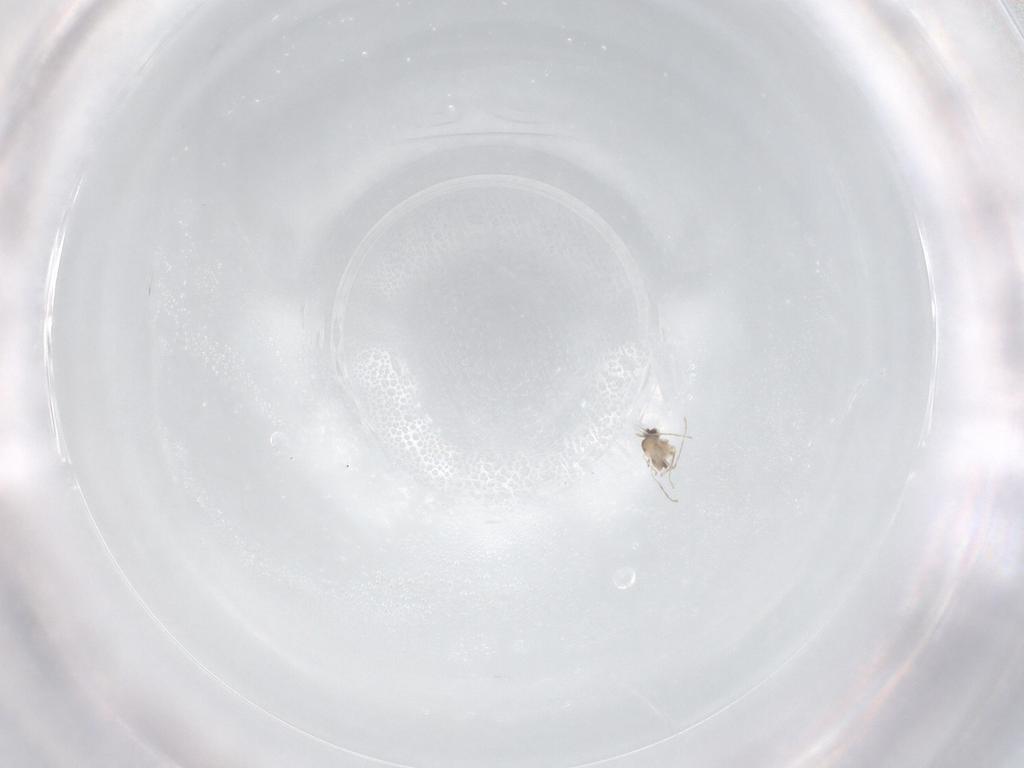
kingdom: Animalia
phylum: Arthropoda
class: Insecta
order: Diptera
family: Cecidomyiidae
